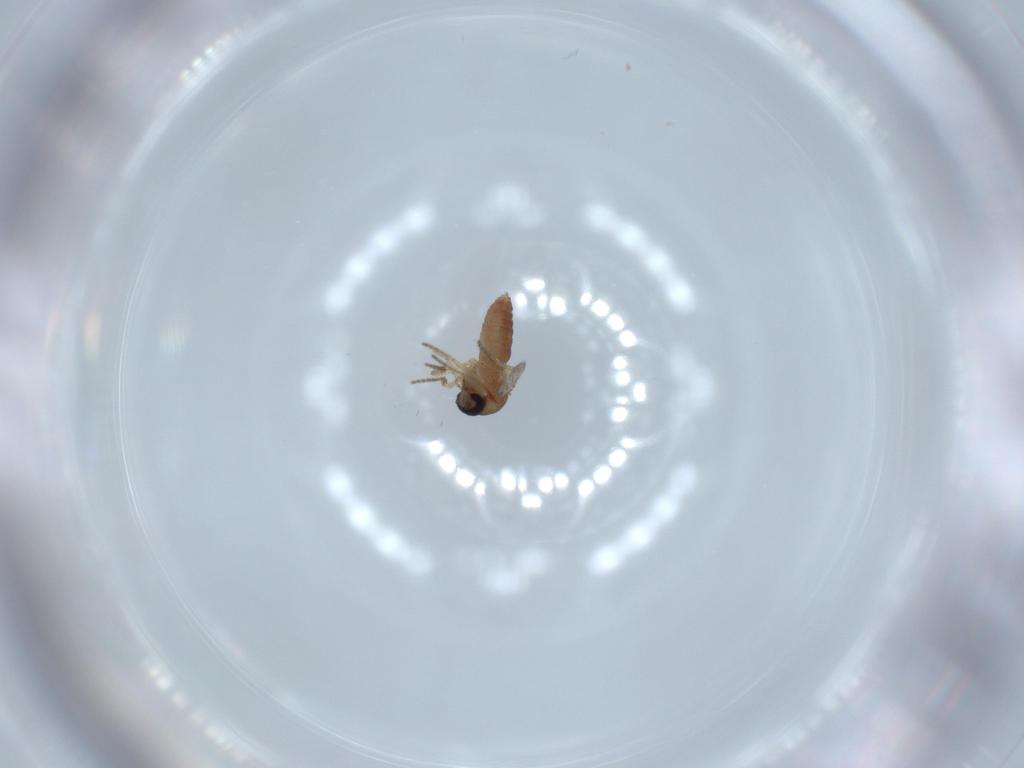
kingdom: Animalia
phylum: Arthropoda
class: Insecta
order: Diptera
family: Ceratopogonidae
